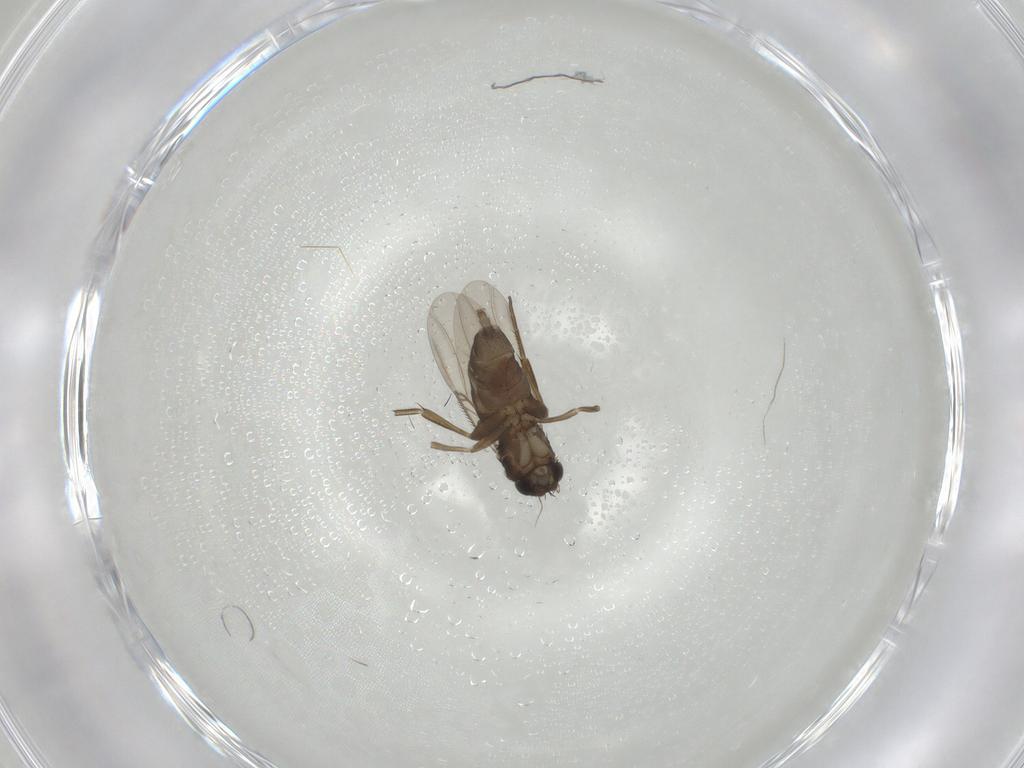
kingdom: Animalia
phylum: Arthropoda
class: Insecta
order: Diptera
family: Phoridae
